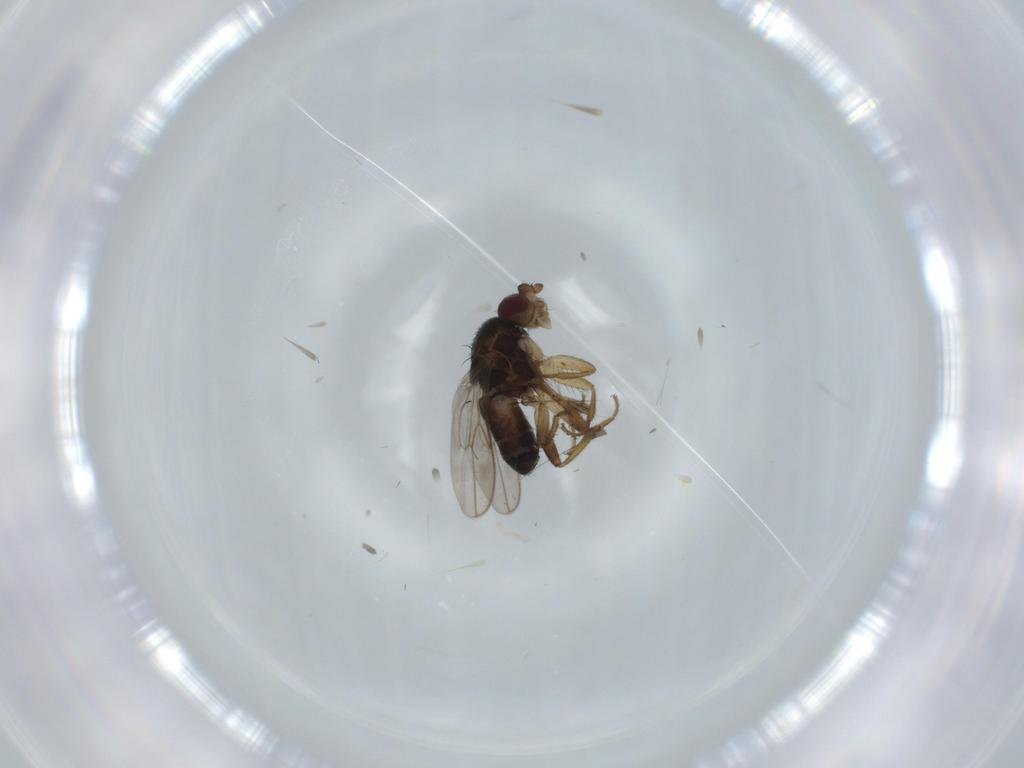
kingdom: Animalia
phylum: Arthropoda
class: Insecta
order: Diptera
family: Sphaeroceridae
